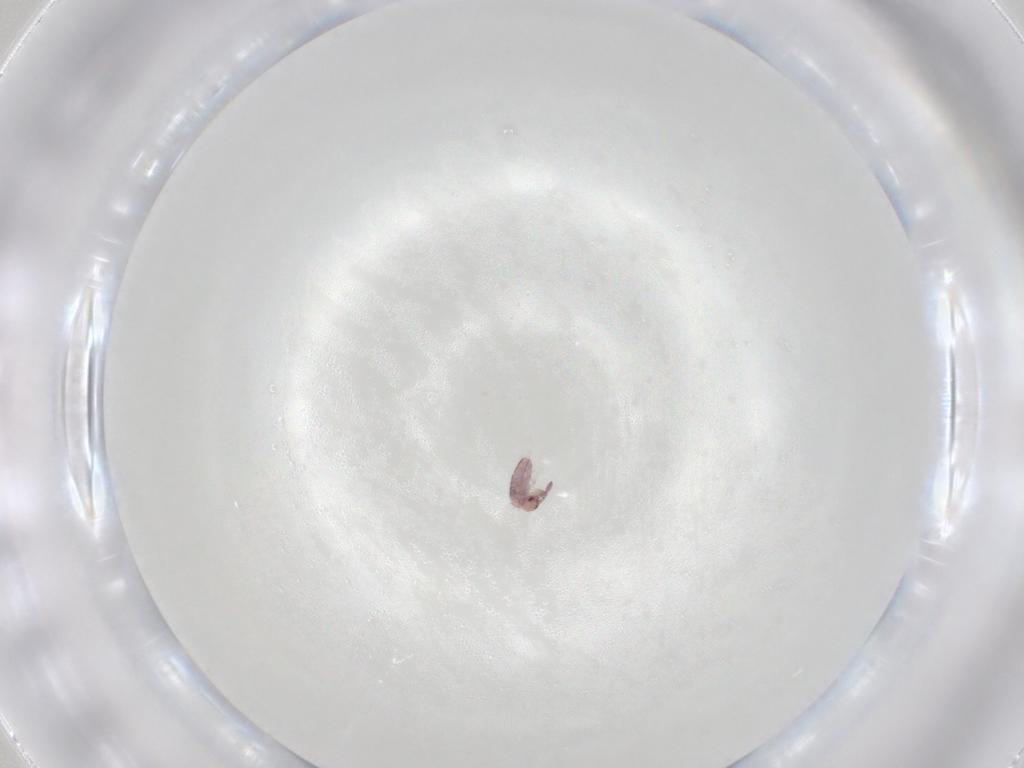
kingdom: Animalia
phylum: Arthropoda
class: Collembola
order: Entomobryomorpha
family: Entomobryidae
